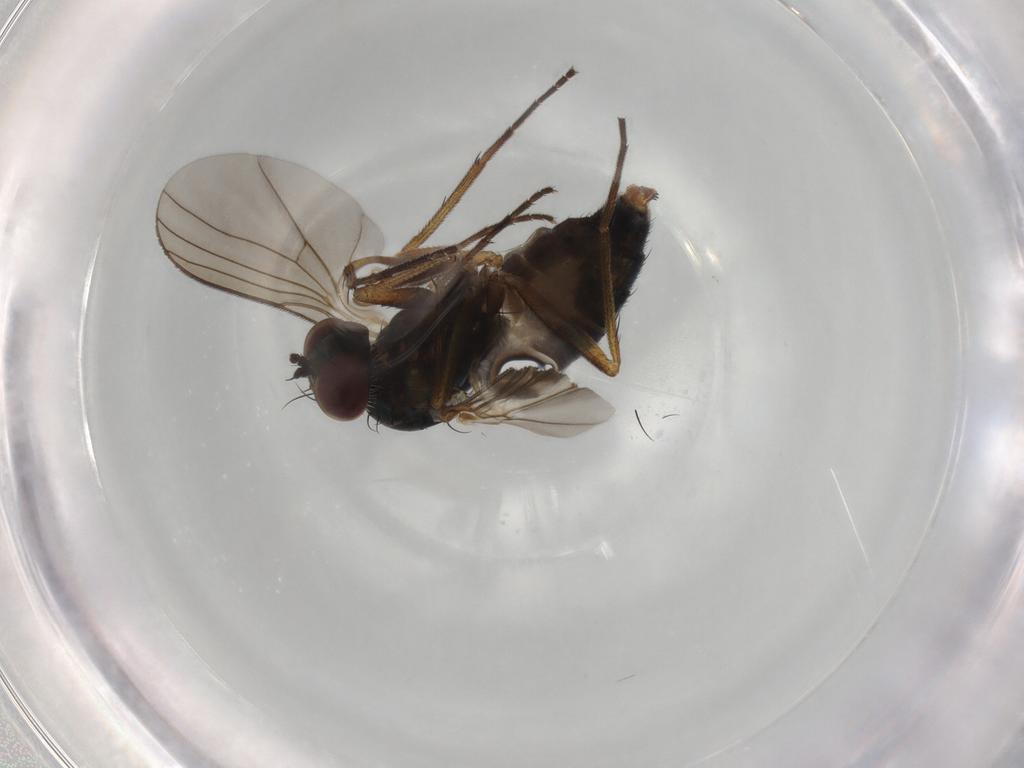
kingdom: Animalia
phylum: Arthropoda
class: Insecta
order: Diptera
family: Dolichopodidae
